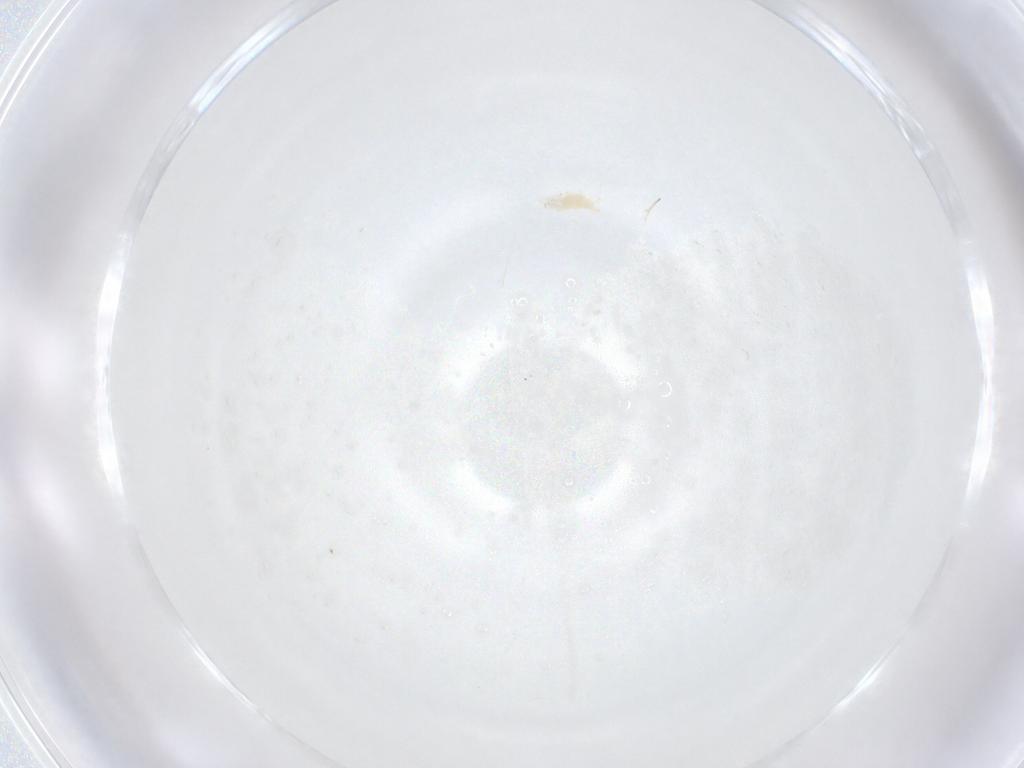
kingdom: Animalia
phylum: Arthropoda
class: Arachnida
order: Trombidiformes
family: Eupodidae
